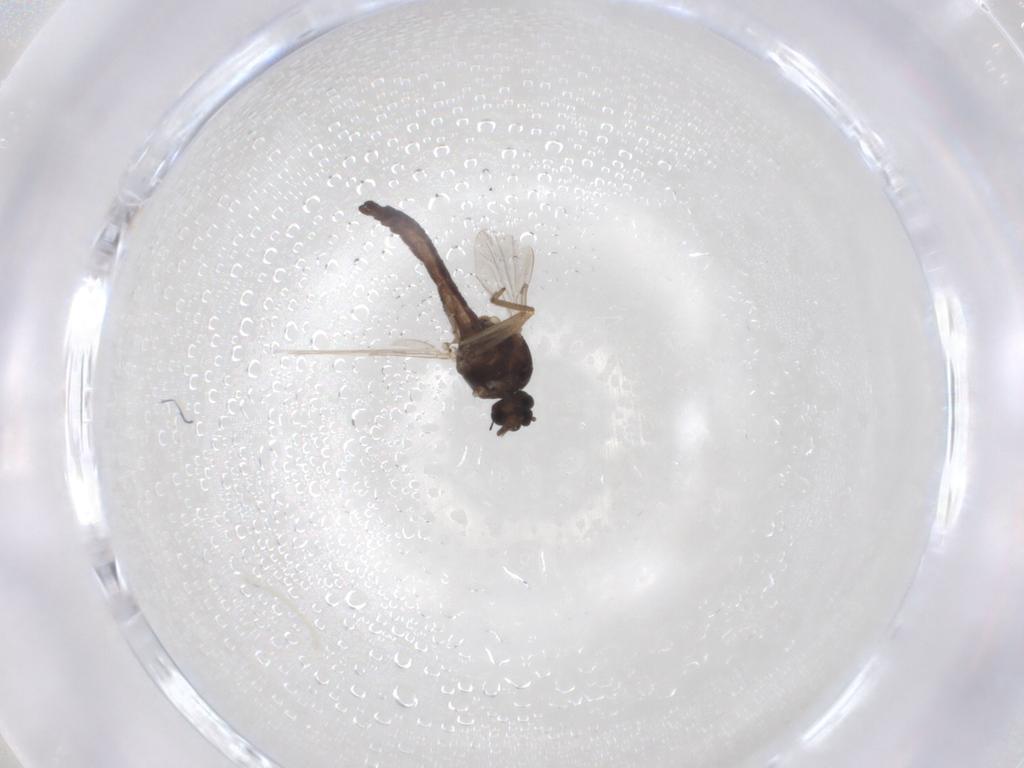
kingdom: Animalia
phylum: Arthropoda
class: Insecta
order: Diptera
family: Ceratopogonidae
